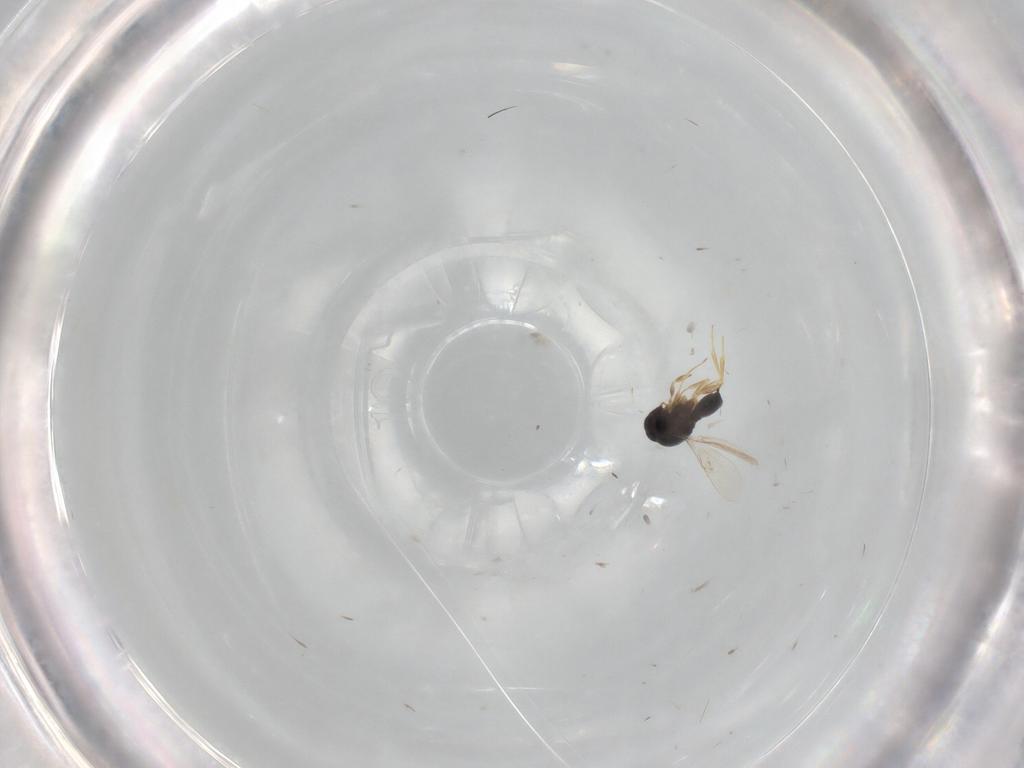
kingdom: Animalia
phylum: Arthropoda
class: Insecta
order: Hymenoptera
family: Scelionidae
